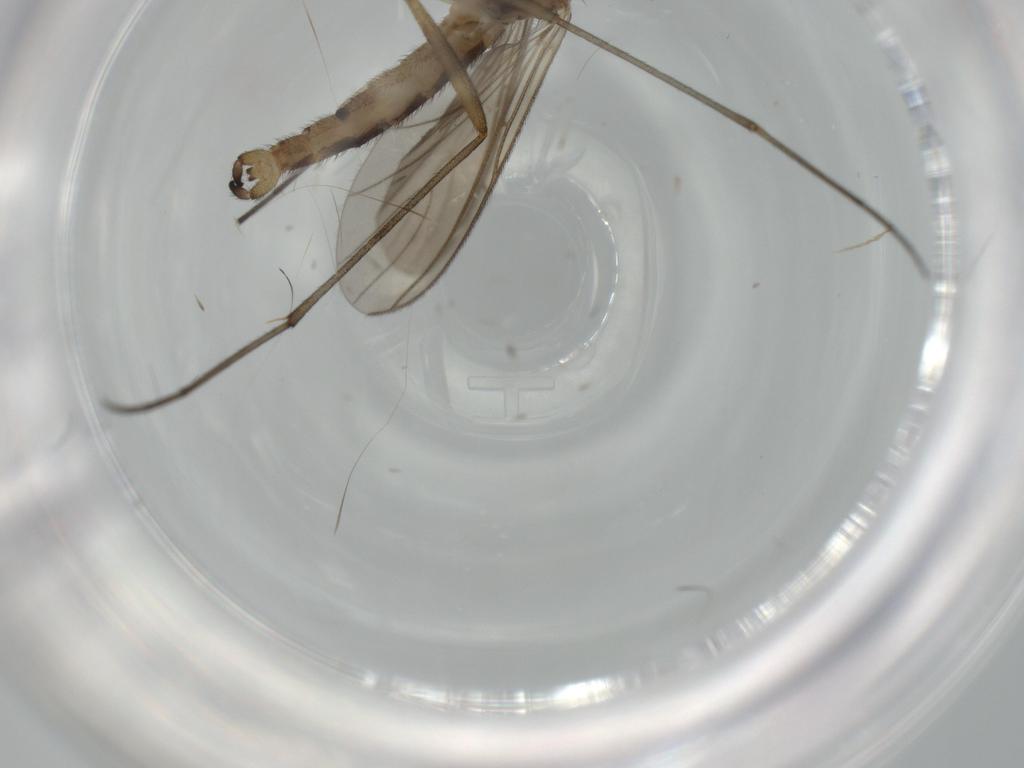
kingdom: Animalia
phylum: Arthropoda
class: Insecta
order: Diptera
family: Sciaridae
